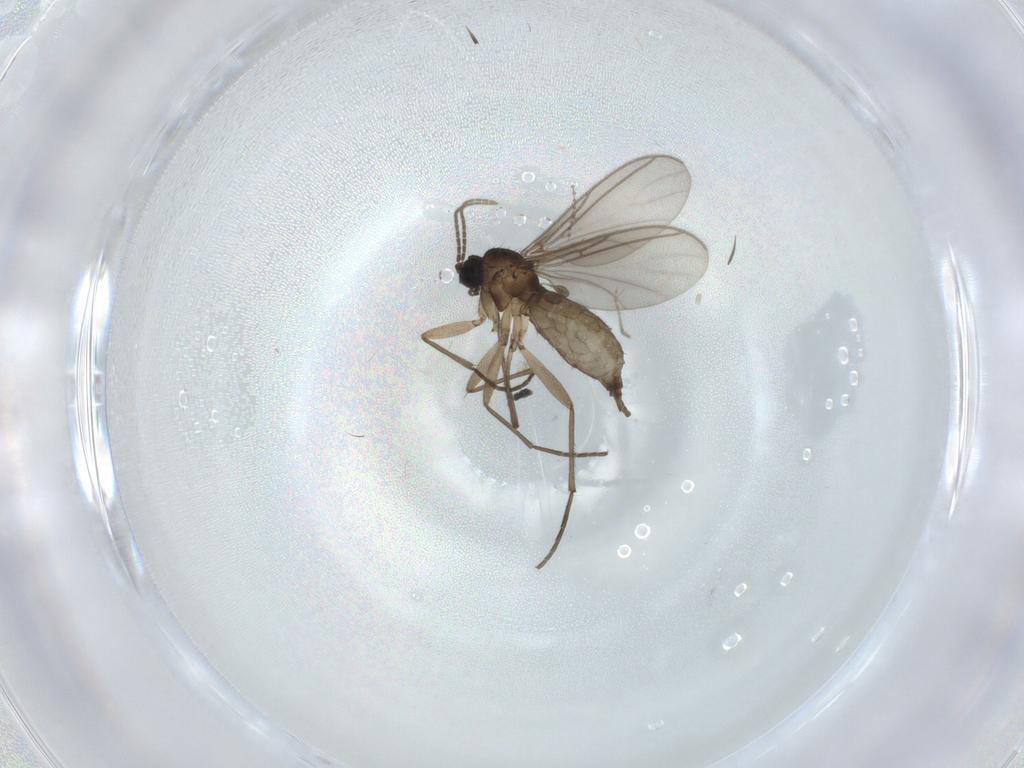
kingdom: Animalia
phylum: Arthropoda
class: Insecta
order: Diptera
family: Sciaridae
